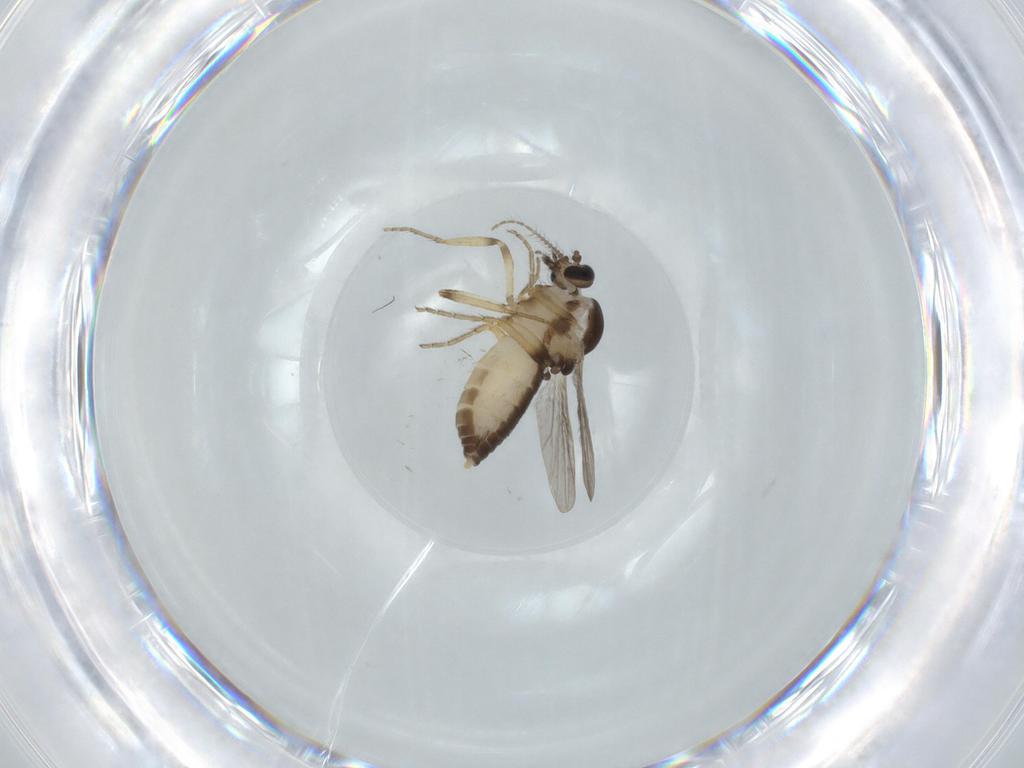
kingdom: Animalia
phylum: Arthropoda
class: Insecta
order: Diptera
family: Ceratopogonidae
